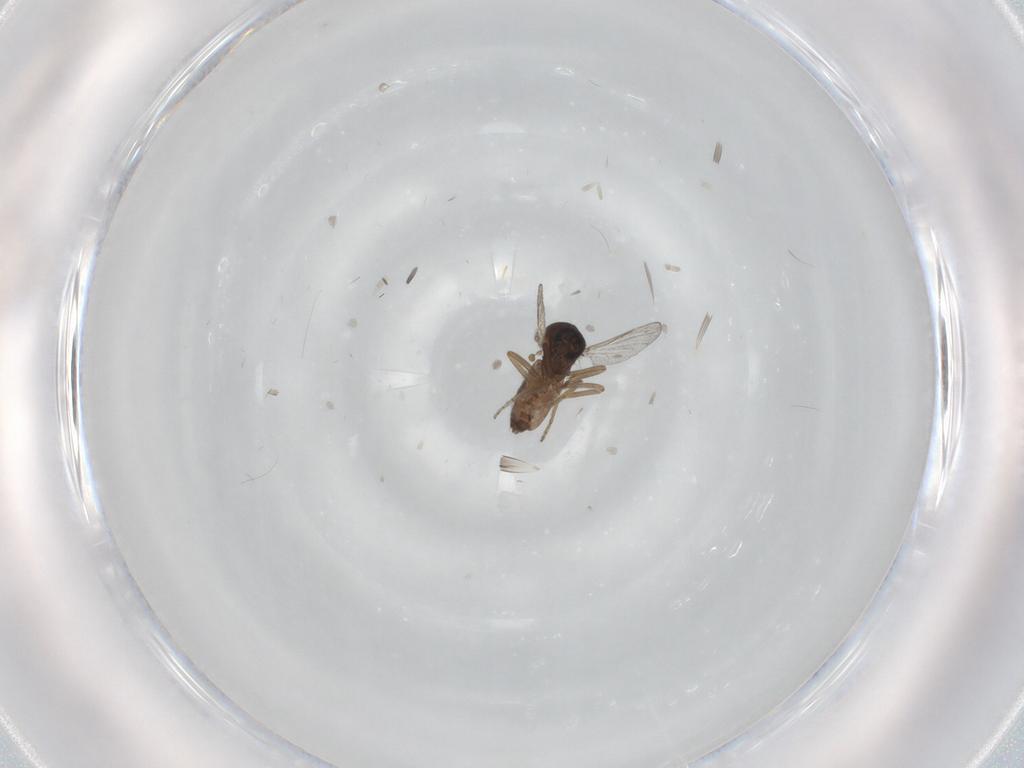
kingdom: Animalia
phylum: Arthropoda
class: Insecta
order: Diptera
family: Ceratopogonidae
